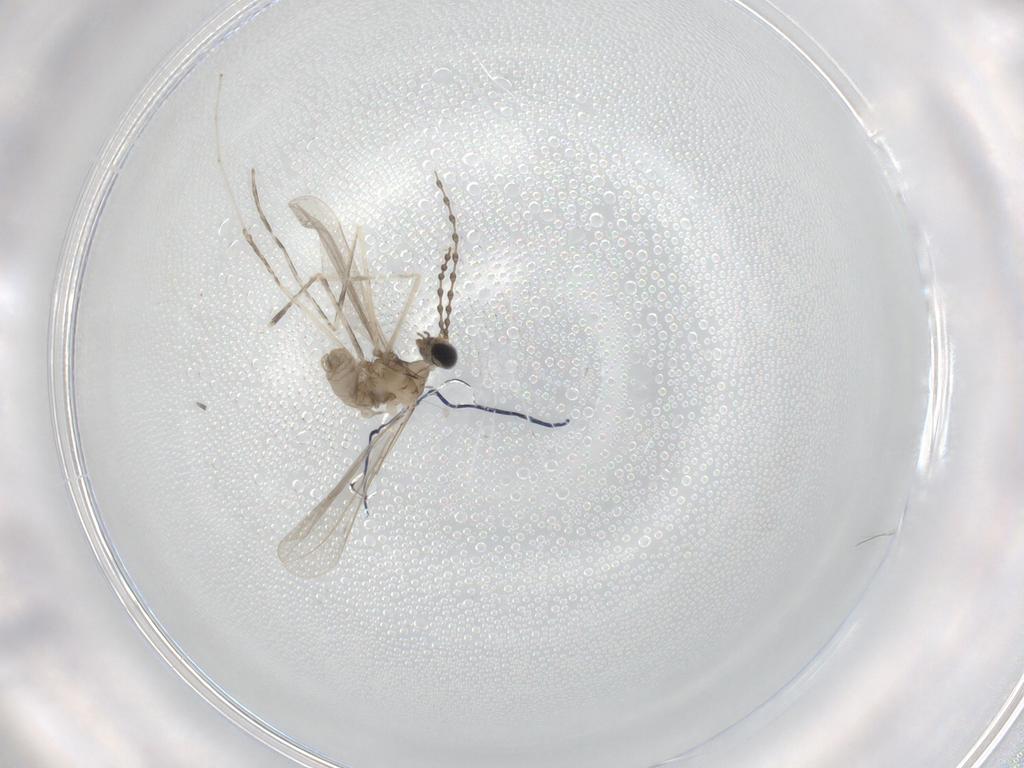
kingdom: Animalia
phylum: Arthropoda
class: Insecta
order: Diptera
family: Cecidomyiidae
